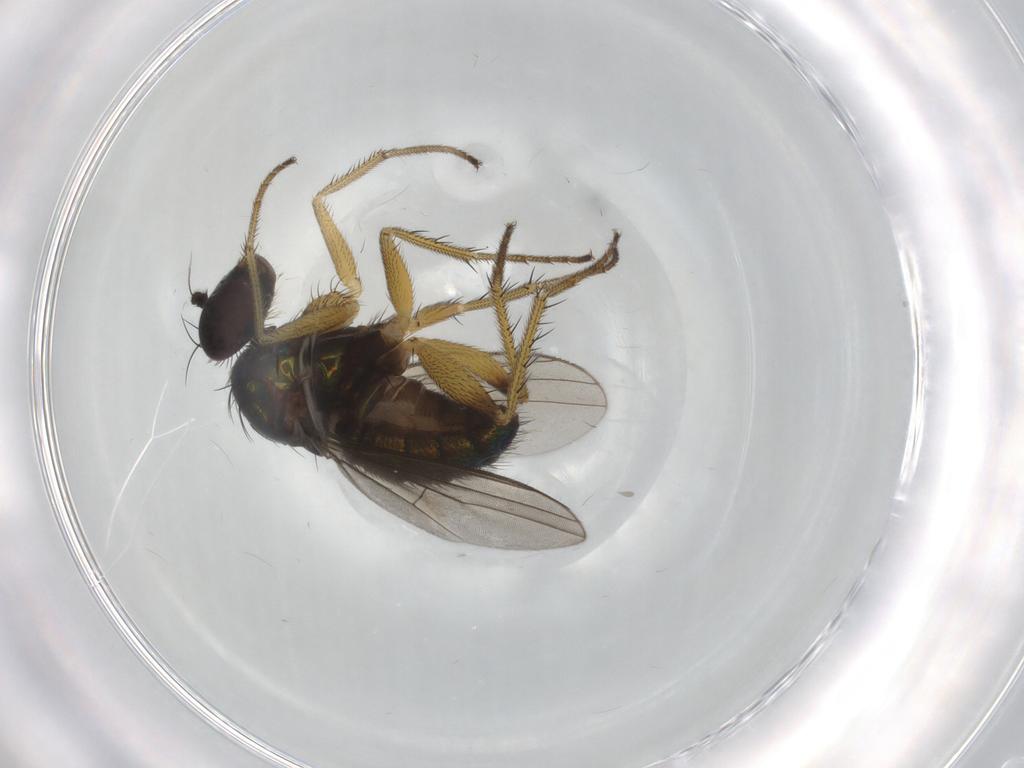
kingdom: Animalia
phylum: Arthropoda
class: Insecta
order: Diptera
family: Dolichopodidae
